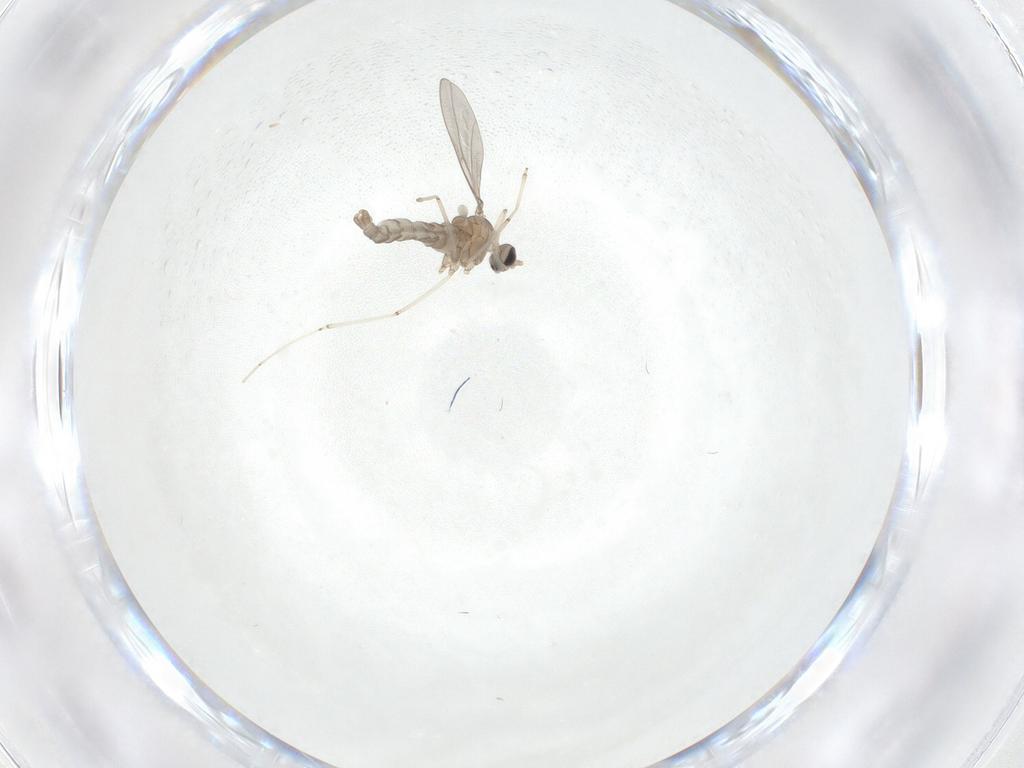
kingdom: Animalia
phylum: Arthropoda
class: Insecta
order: Diptera
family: Cecidomyiidae
